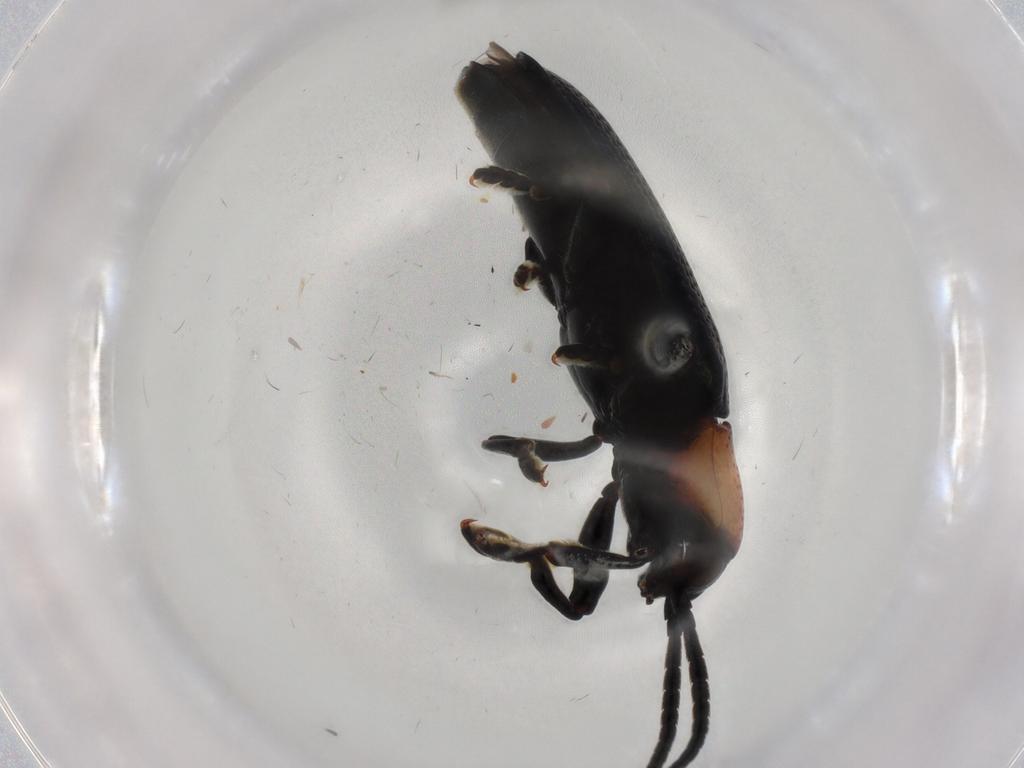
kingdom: Animalia
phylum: Arthropoda
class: Insecta
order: Coleoptera
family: Chrysomelidae
